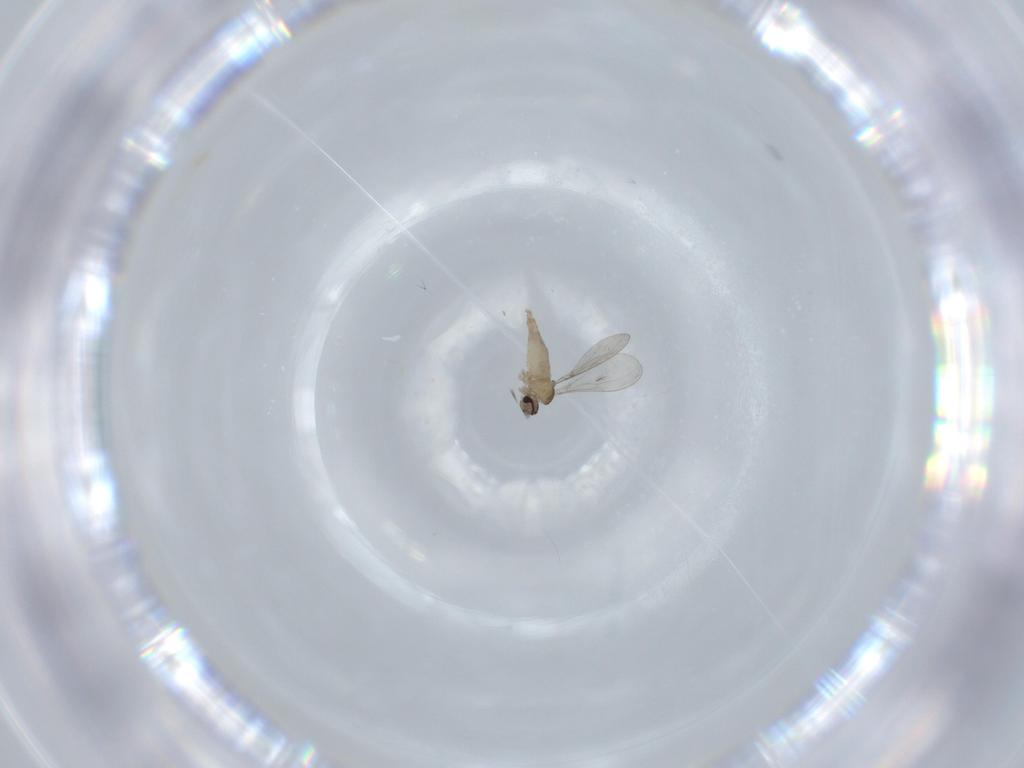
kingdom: Animalia
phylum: Arthropoda
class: Insecta
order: Diptera
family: Cecidomyiidae
